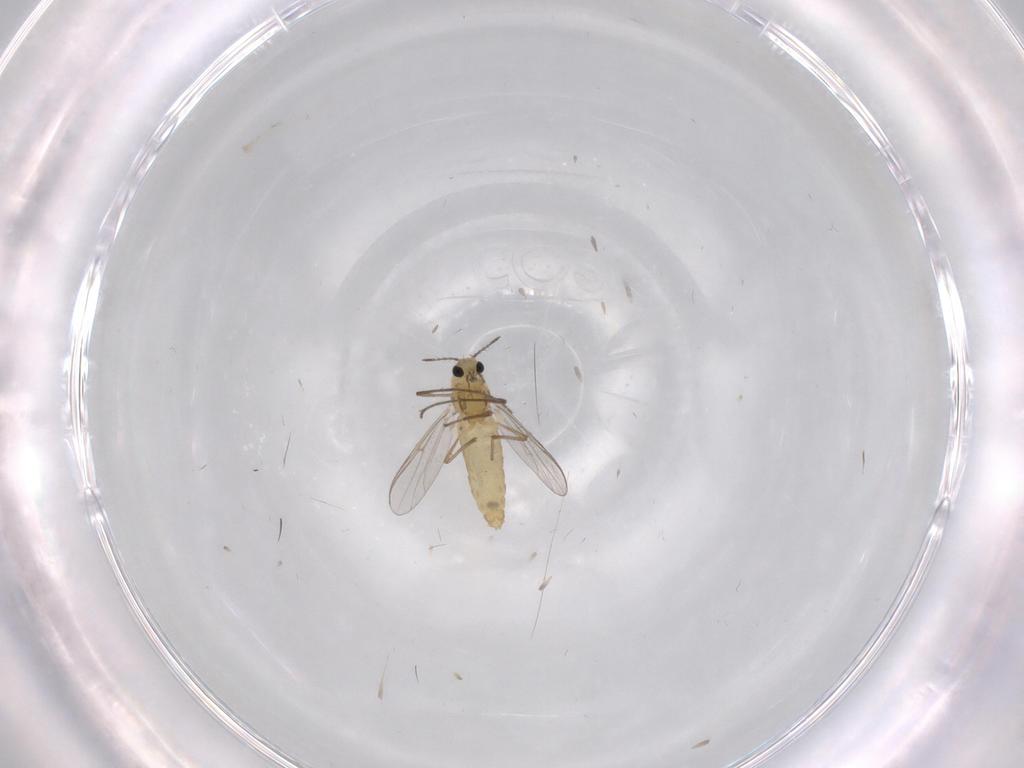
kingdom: Animalia
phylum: Arthropoda
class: Insecta
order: Diptera
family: Chironomidae
